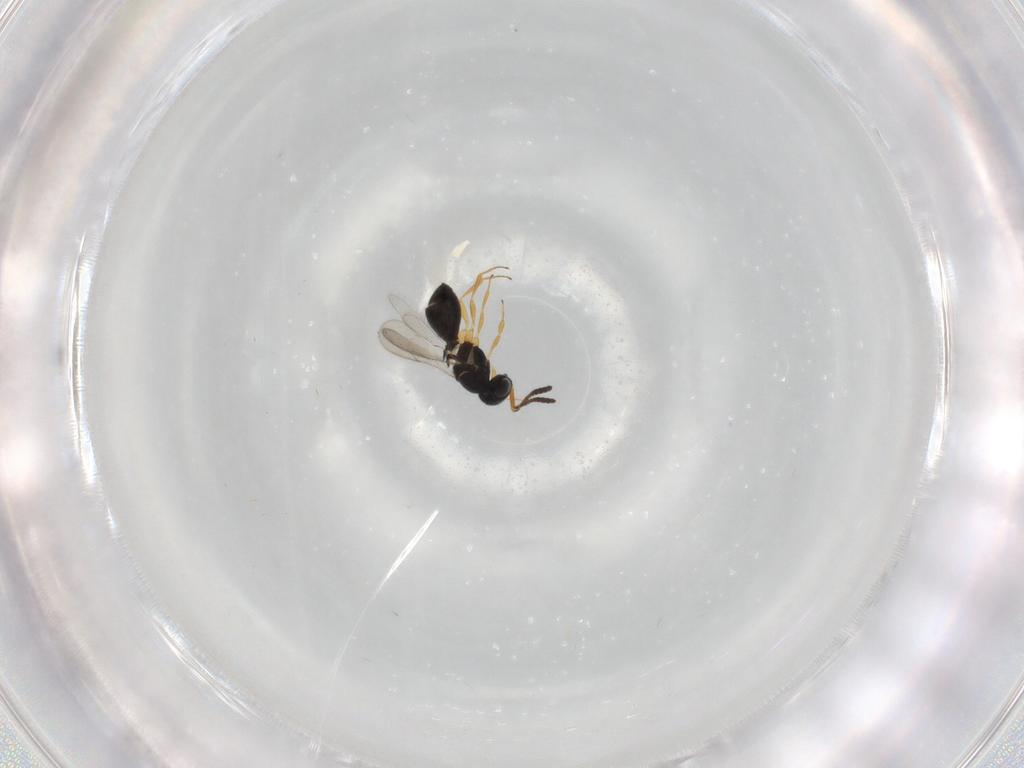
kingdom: Animalia
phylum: Arthropoda
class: Insecta
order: Hymenoptera
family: Scelionidae
